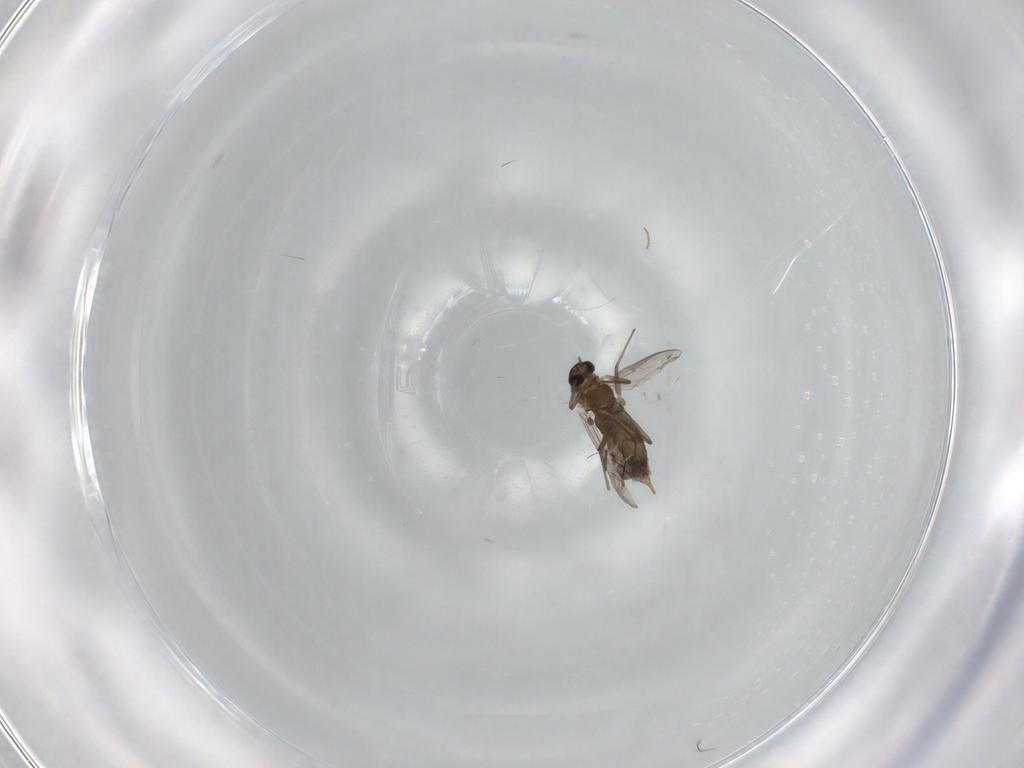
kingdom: Animalia
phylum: Arthropoda
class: Insecta
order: Diptera
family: Chironomidae
